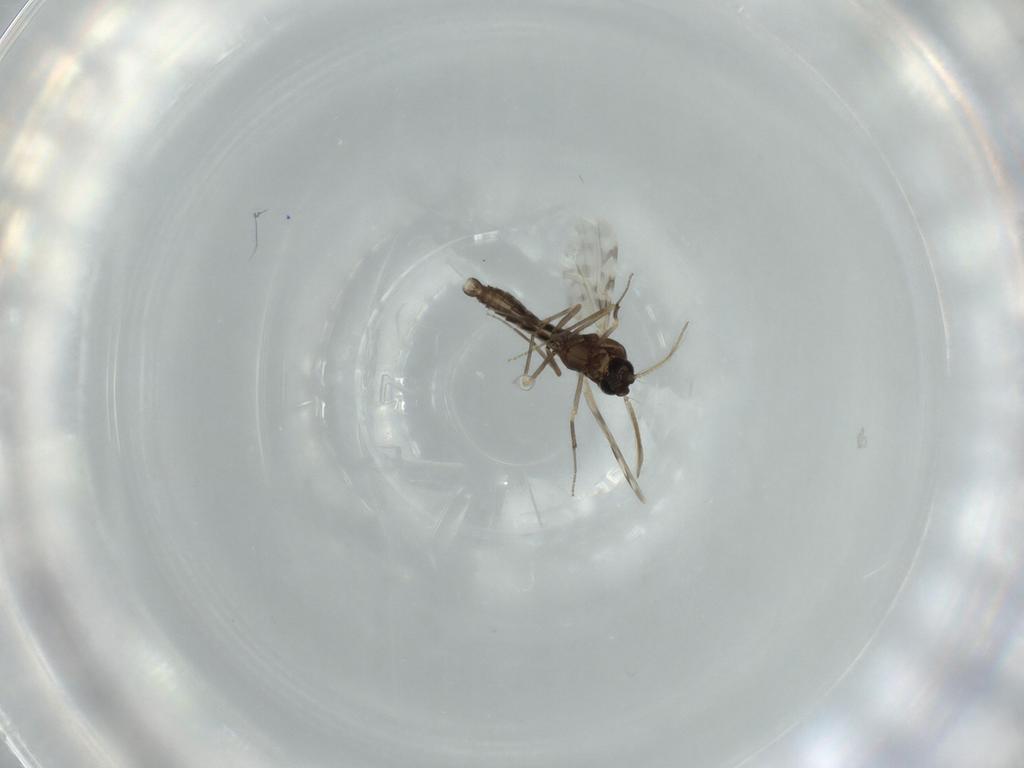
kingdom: Animalia
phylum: Arthropoda
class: Insecta
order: Diptera
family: Ceratopogonidae
